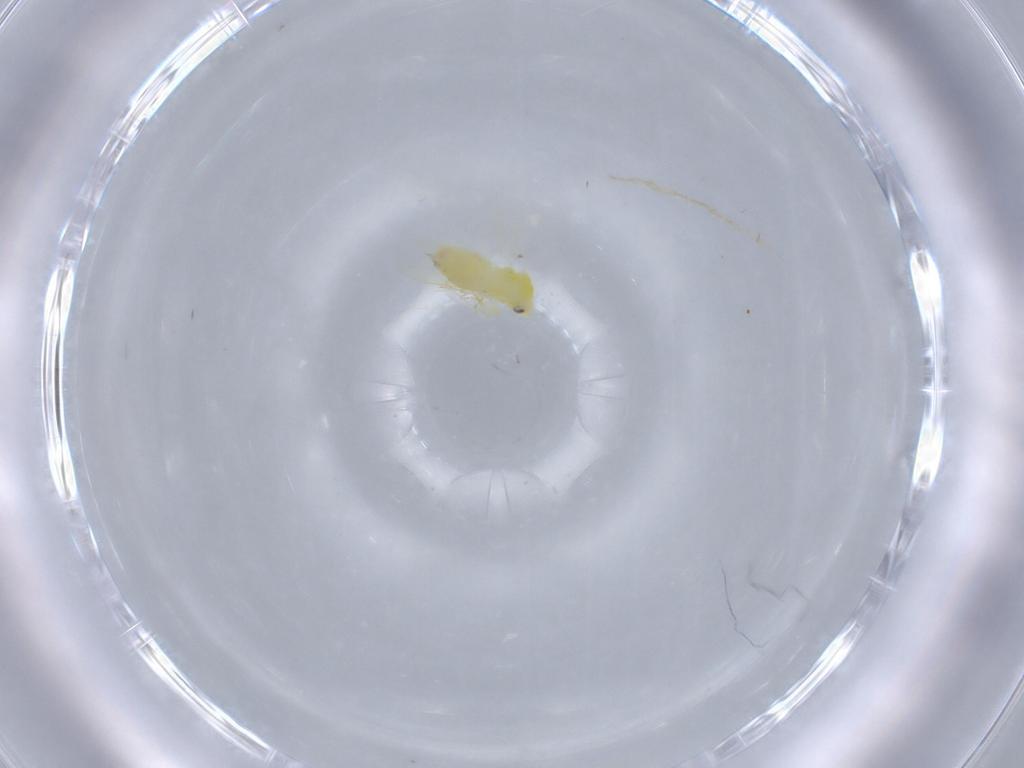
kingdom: Animalia
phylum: Arthropoda
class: Insecta
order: Hemiptera
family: Aleyrodidae
